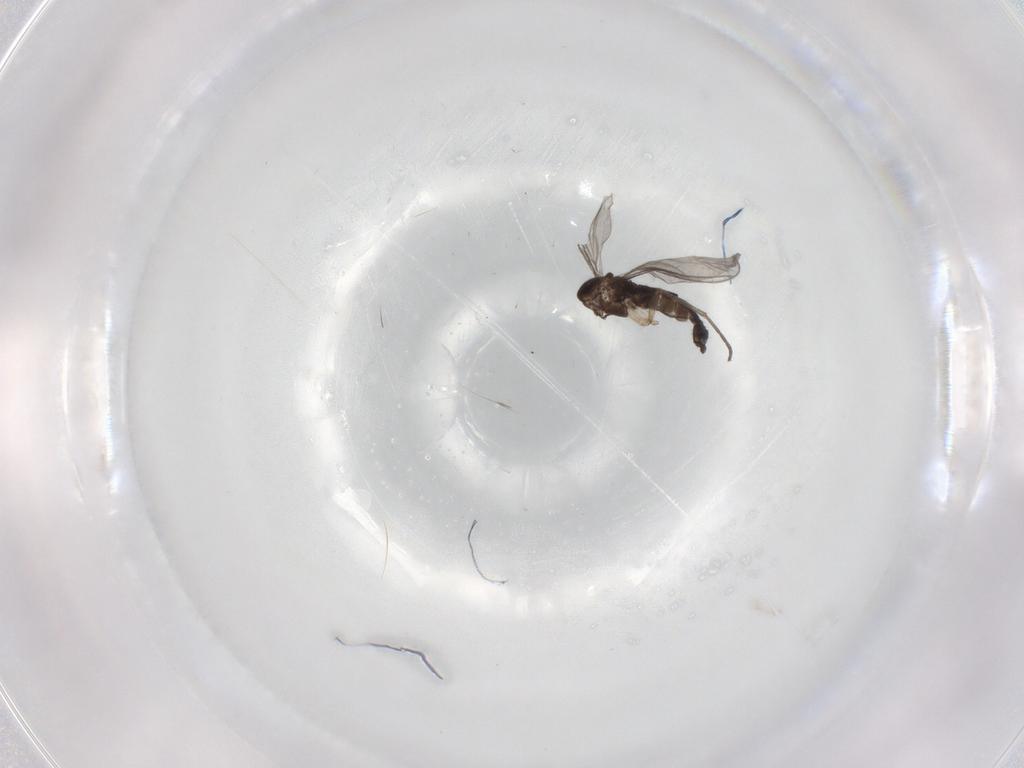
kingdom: Animalia
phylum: Arthropoda
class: Insecta
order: Diptera
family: Sciaridae
